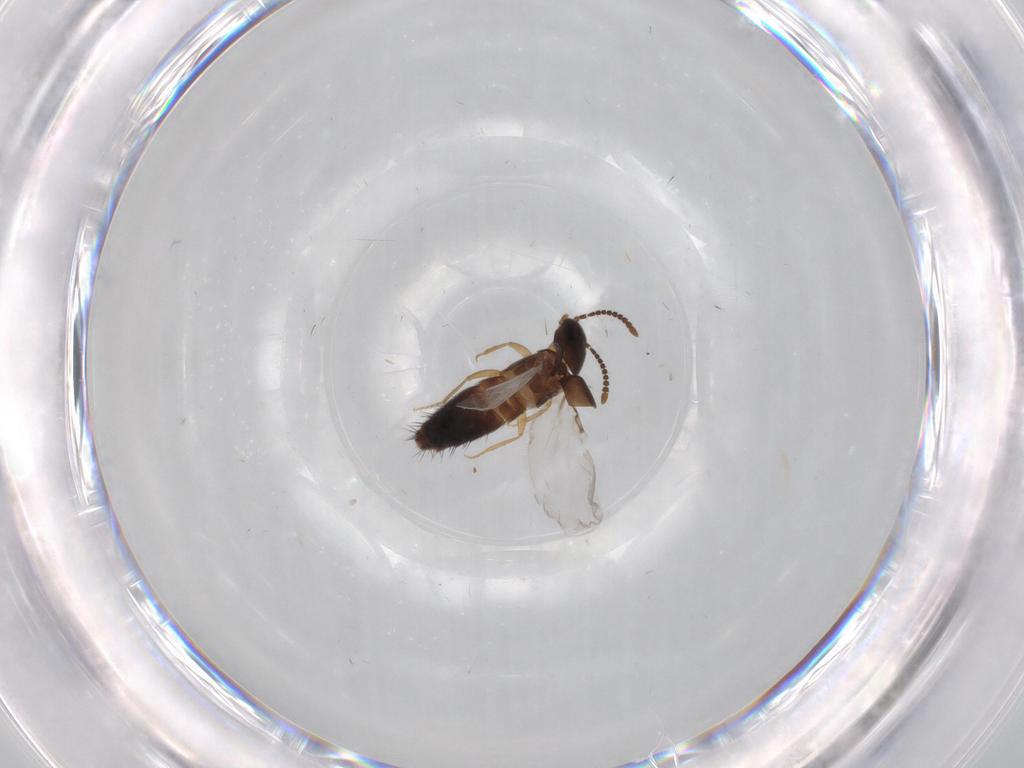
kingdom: Animalia
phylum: Arthropoda
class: Insecta
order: Coleoptera
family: Staphylinidae
